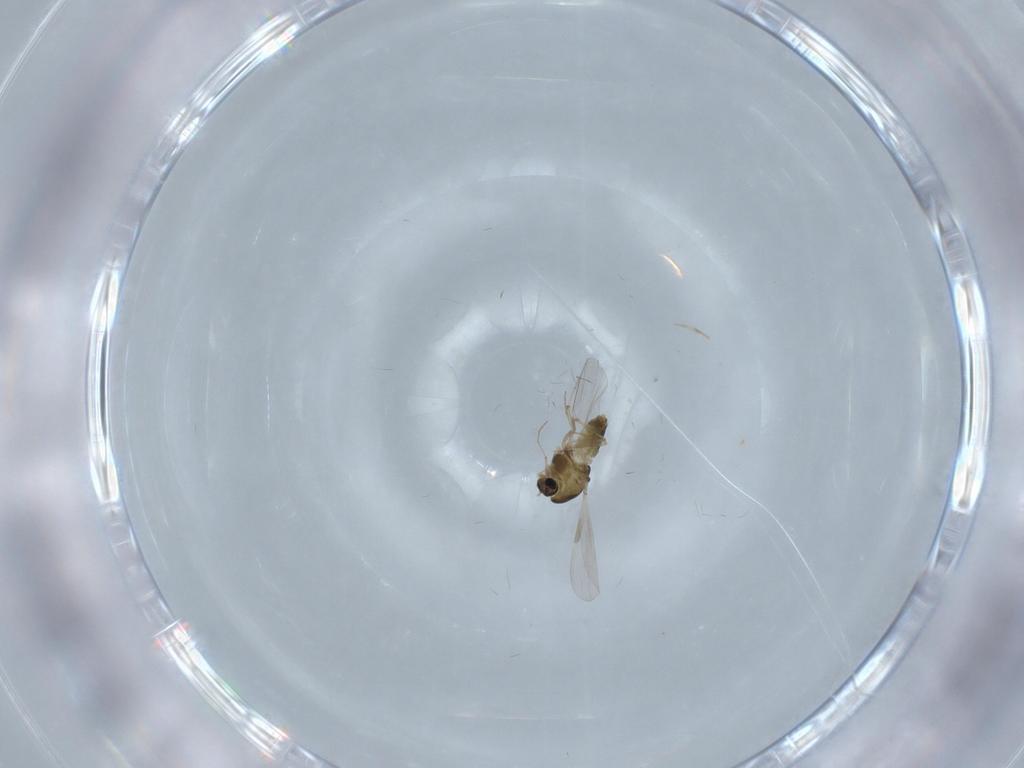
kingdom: Animalia
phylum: Arthropoda
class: Insecta
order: Diptera
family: Chironomidae
